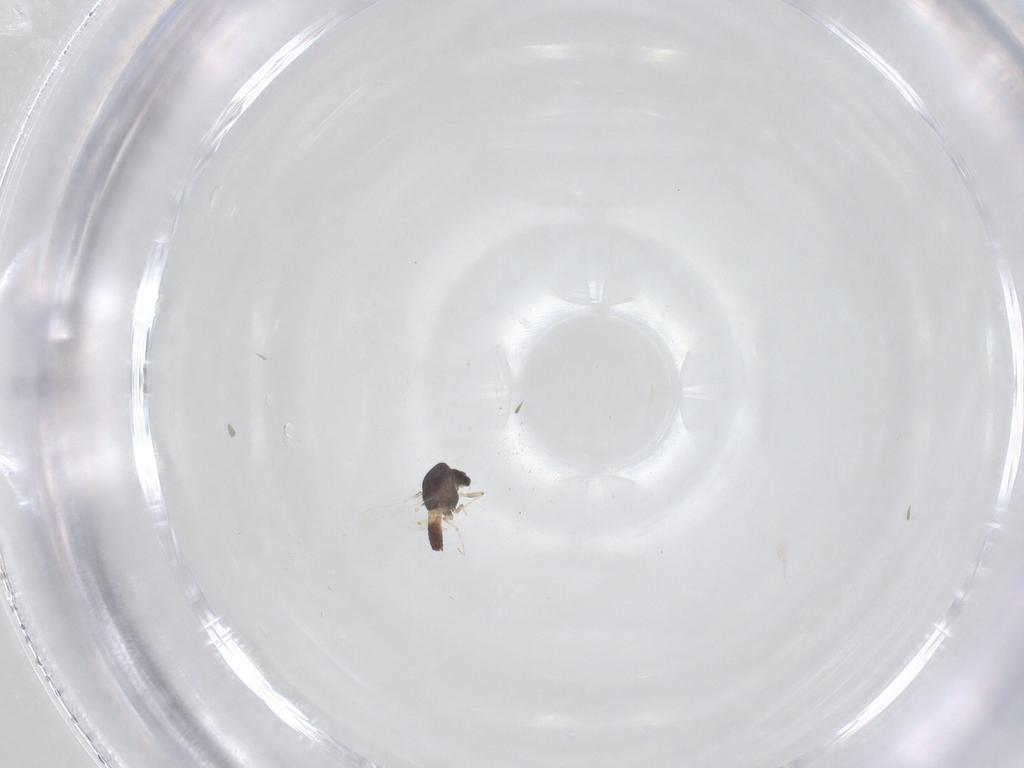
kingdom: Animalia
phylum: Arthropoda
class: Insecta
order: Diptera
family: Chironomidae
